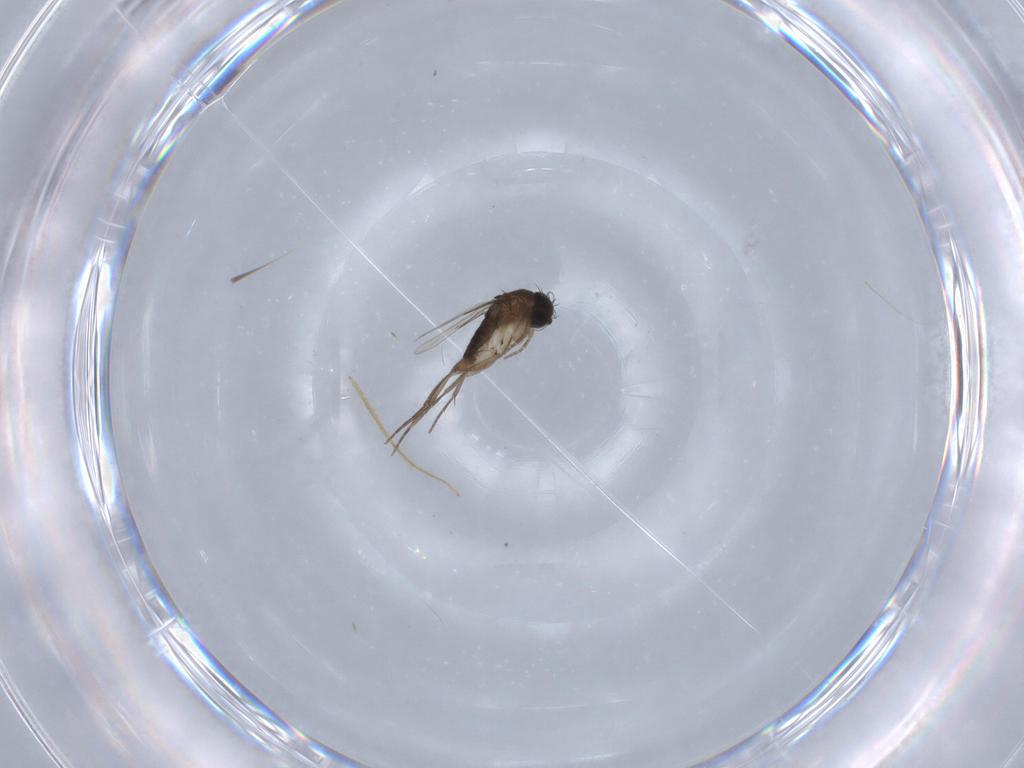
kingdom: Animalia
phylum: Arthropoda
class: Insecta
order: Diptera
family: Phoridae
